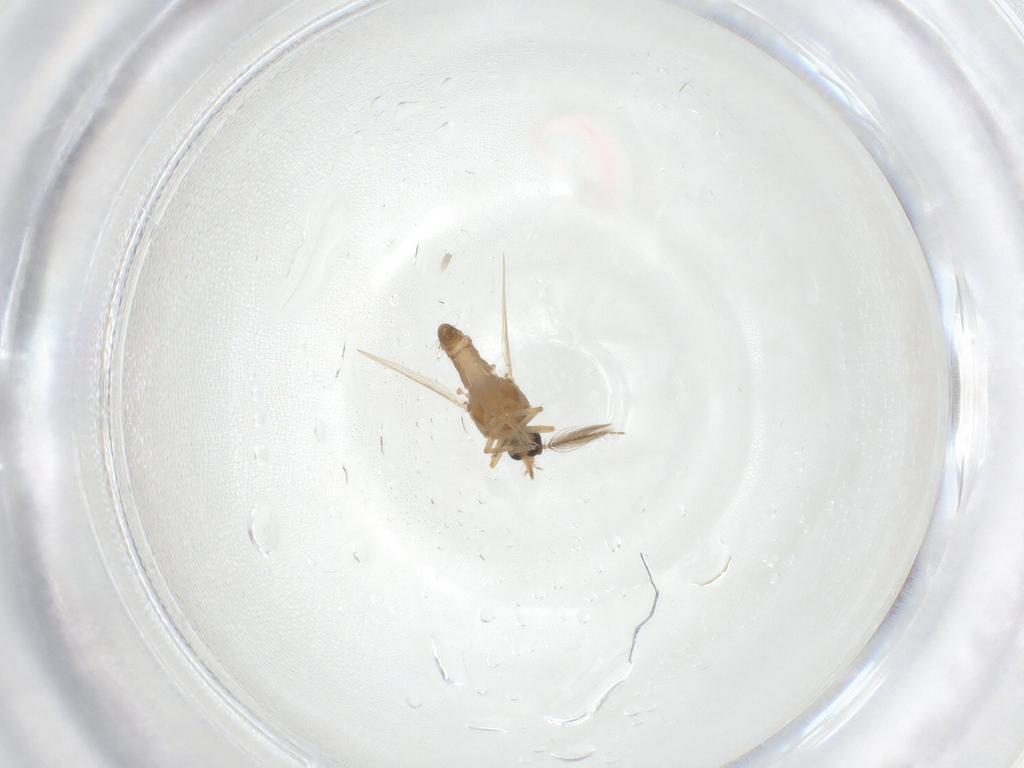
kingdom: Animalia
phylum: Arthropoda
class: Insecta
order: Diptera
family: Ceratopogonidae
